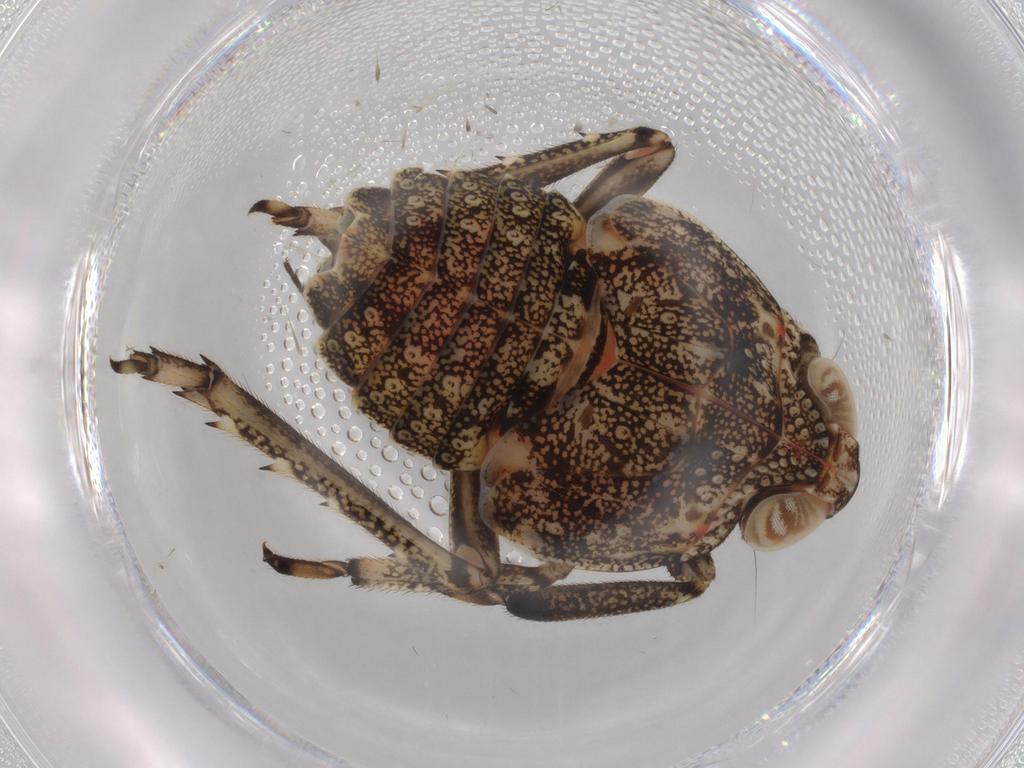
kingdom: Animalia
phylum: Arthropoda
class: Insecta
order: Hemiptera
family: Issidae
